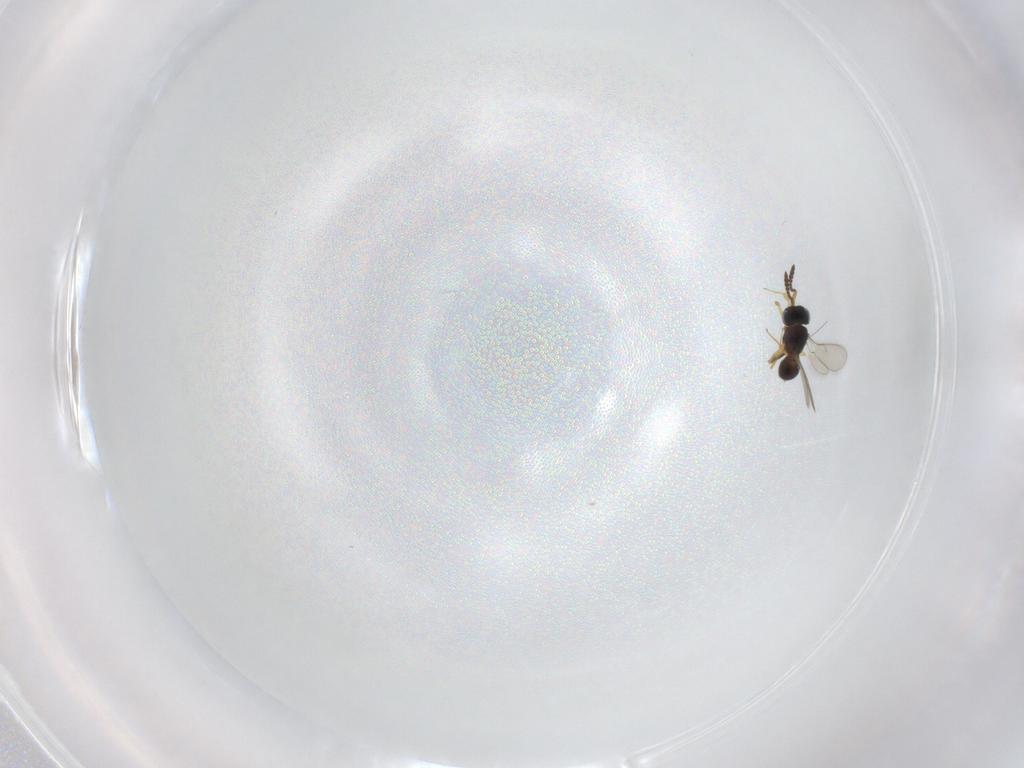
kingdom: Animalia
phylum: Arthropoda
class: Insecta
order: Hymenoptera
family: Scelionidae
